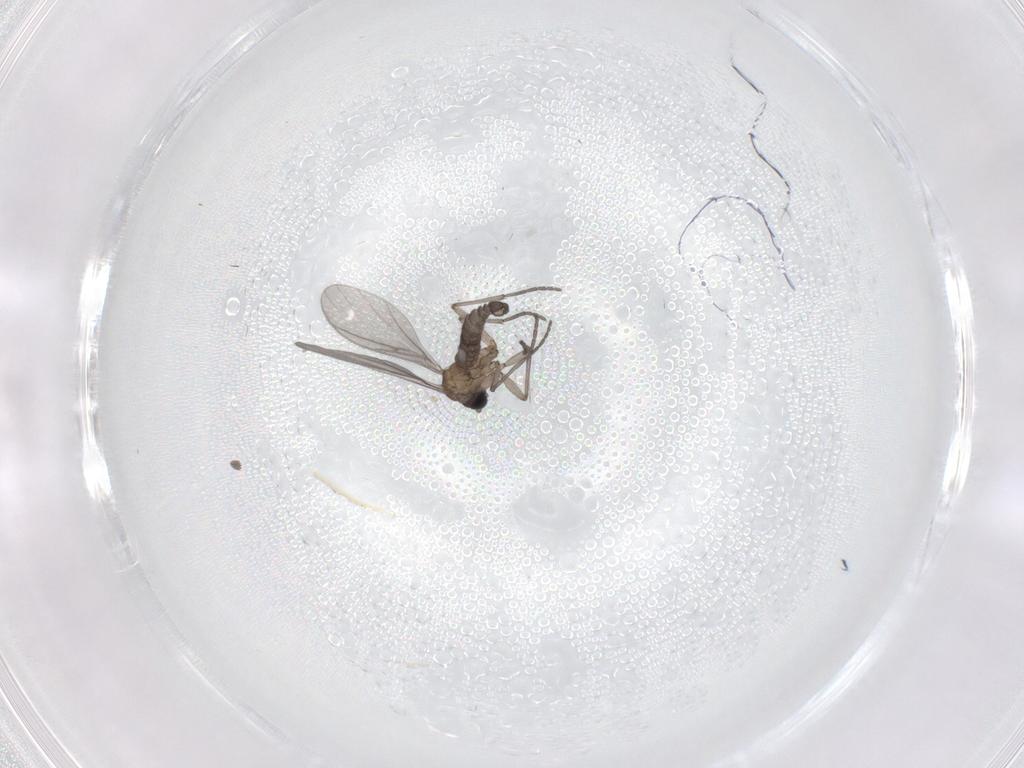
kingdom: Animalia
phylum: Arthropoda
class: Insecta
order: Diptera
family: Sciaridae
